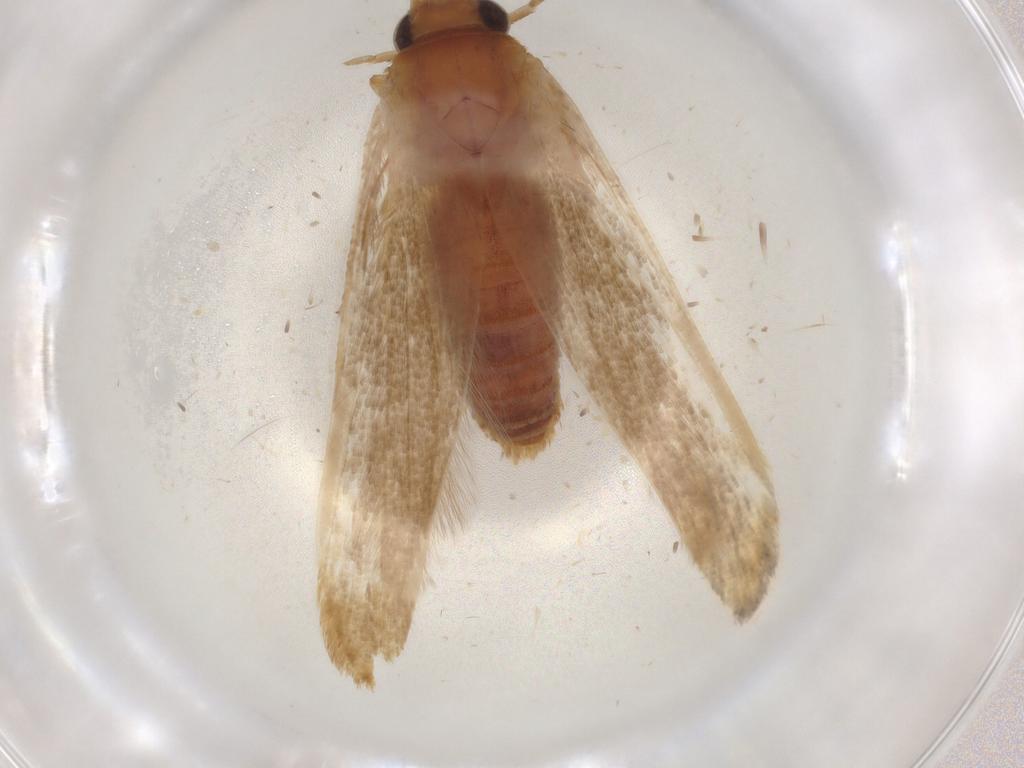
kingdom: Animalia
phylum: Arthropoda
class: Insecta
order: Lepidoptera
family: Blastobasidae
